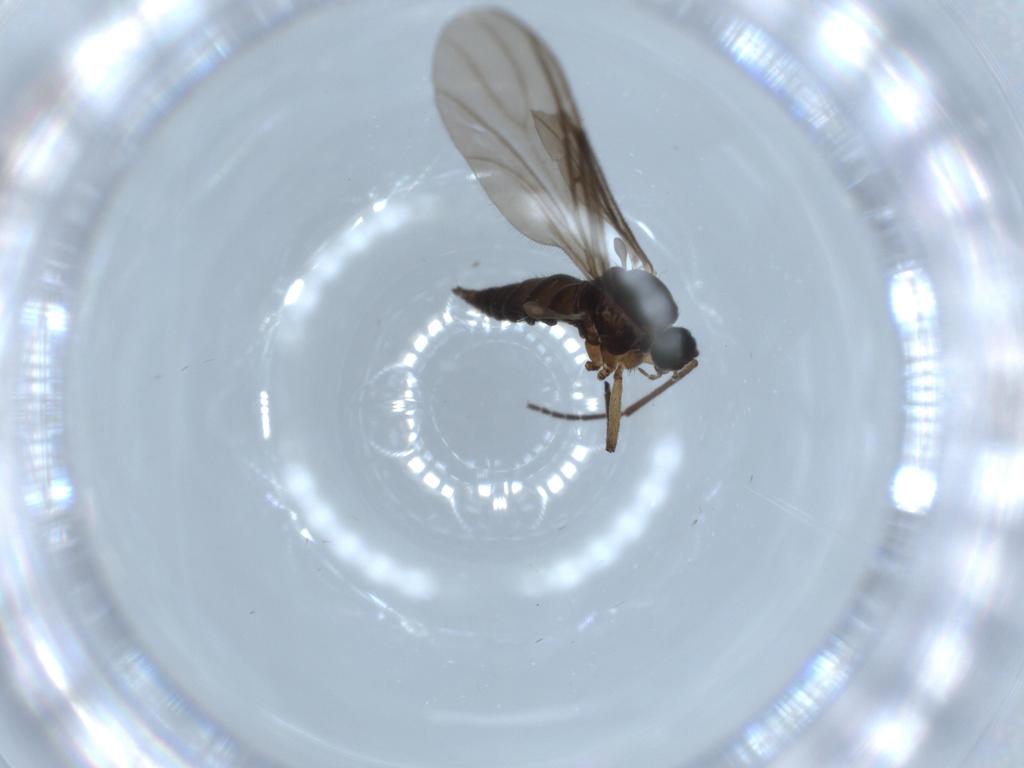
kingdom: Animalia
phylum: Arthropoda
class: Insecta
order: Diptera
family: Sciaridae
